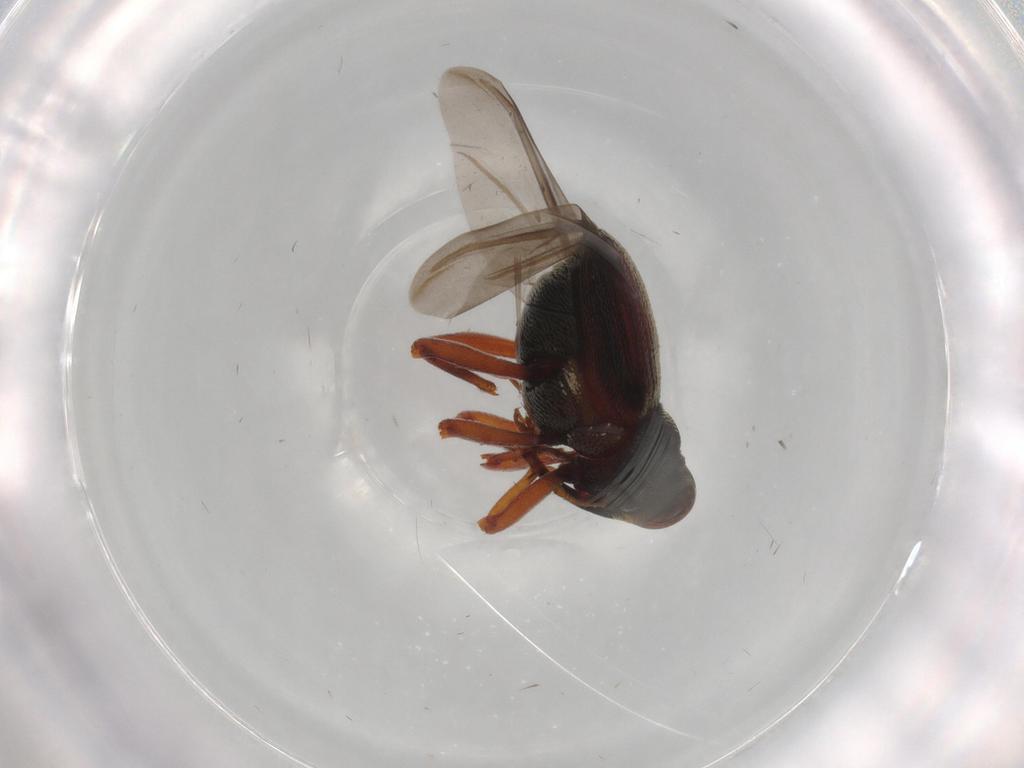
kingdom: Animalia
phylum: Arthropoda
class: Insecta
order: Coleoptera
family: Curculionidae
